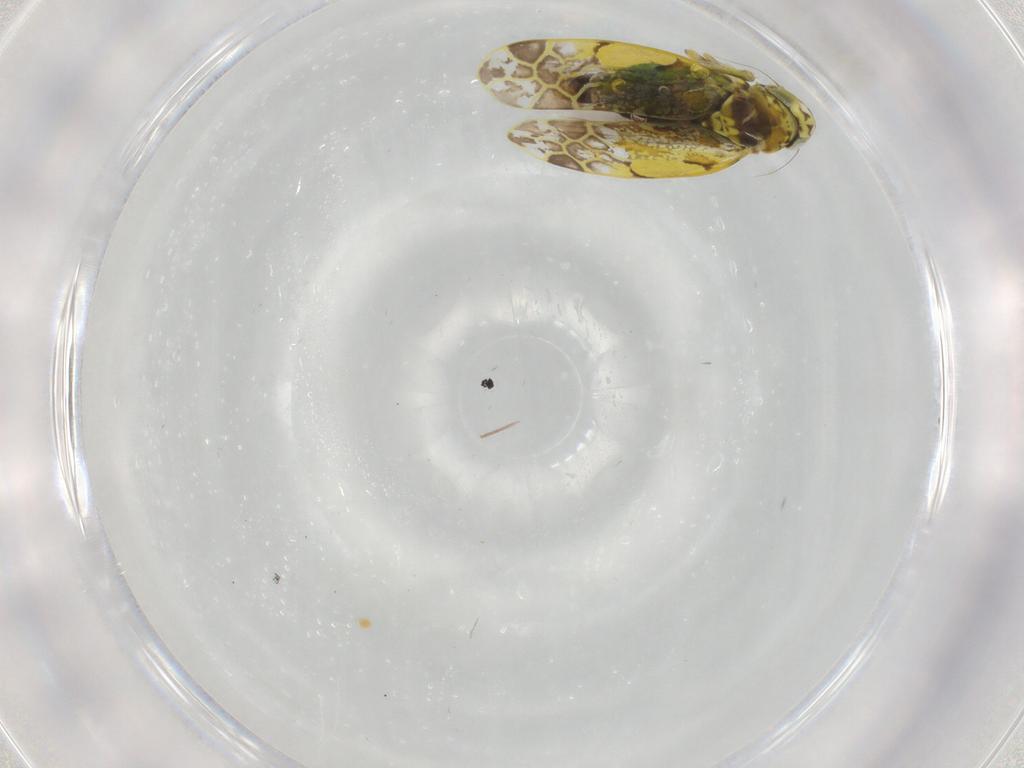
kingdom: Animalia
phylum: Arthropoda
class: Insecta
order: Hemiptera
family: Cicadellidae
